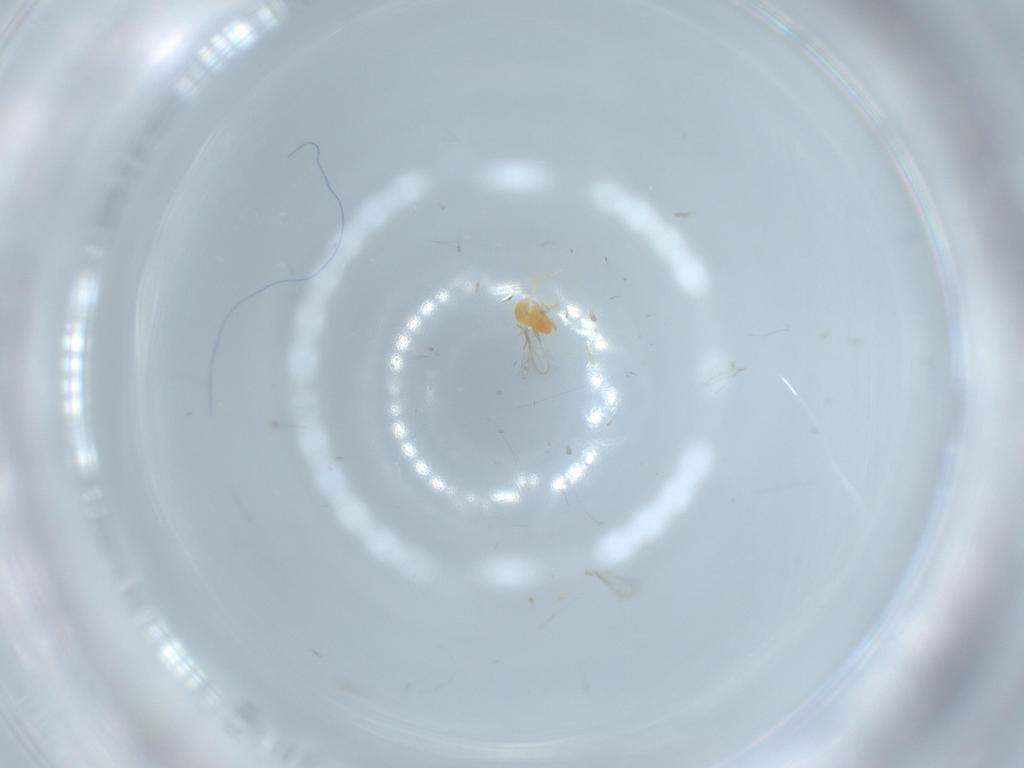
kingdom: Animalia
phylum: Arthropoda
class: Insecta
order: Hymenoptera
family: Aphelinidae
